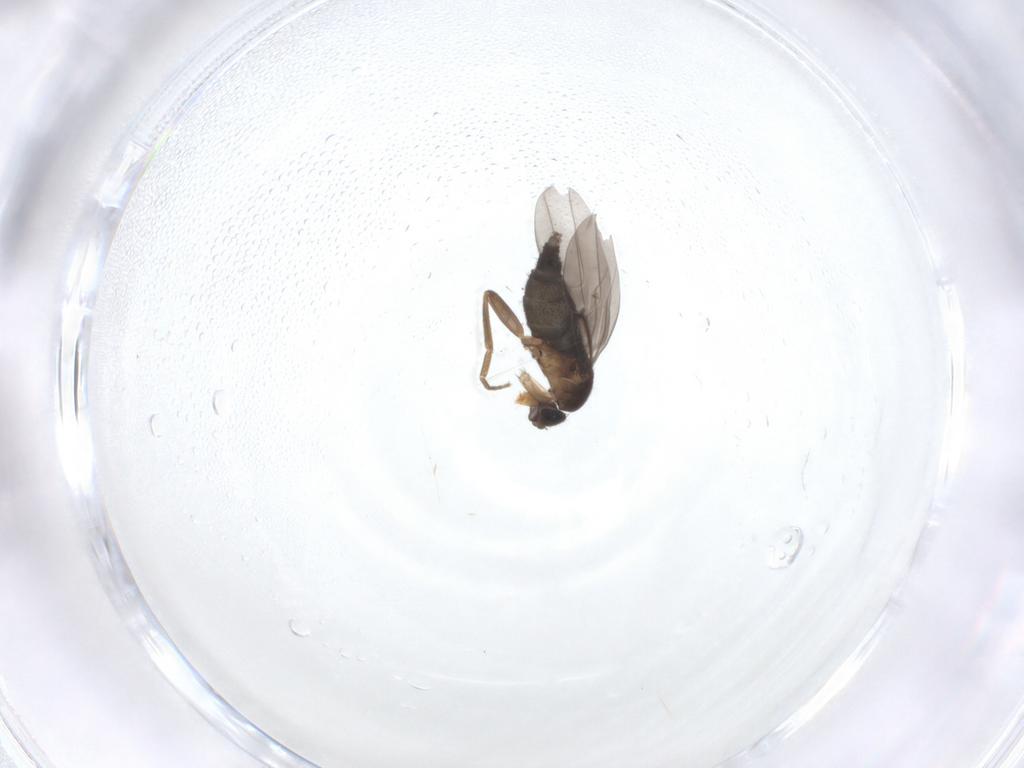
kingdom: Animalia
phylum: Arthropoda
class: Insecta
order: Diptera
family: Phoridae
